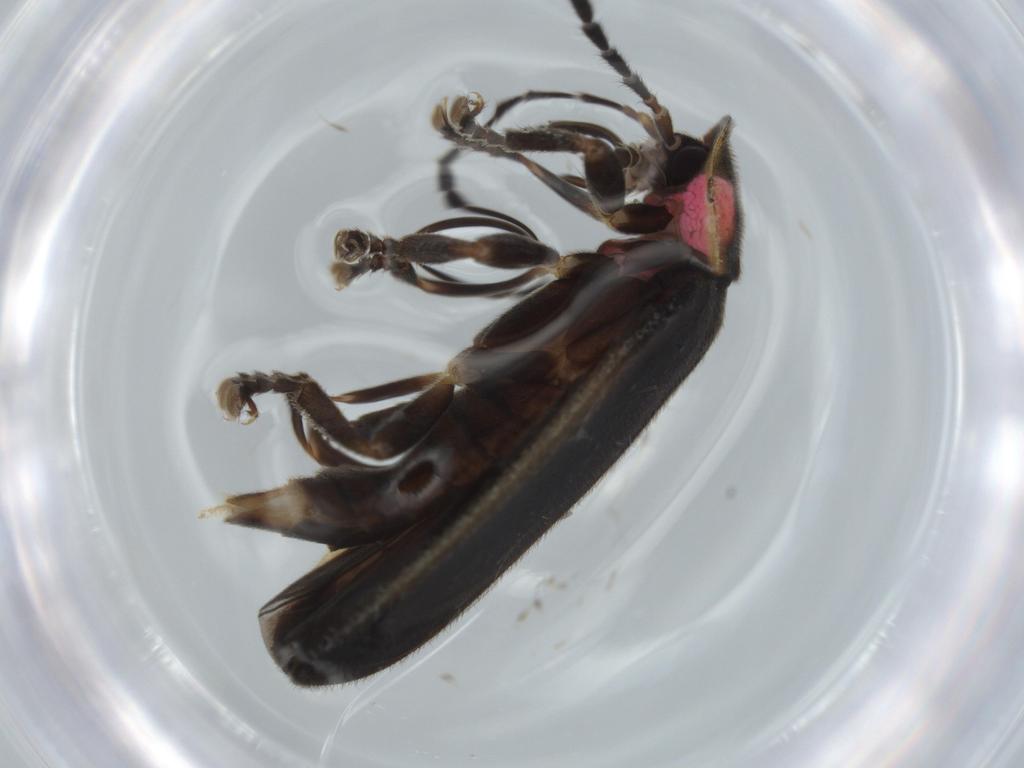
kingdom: Animalia
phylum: Arthropoda
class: Insecta
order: Coleoptera
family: Lampyridae
